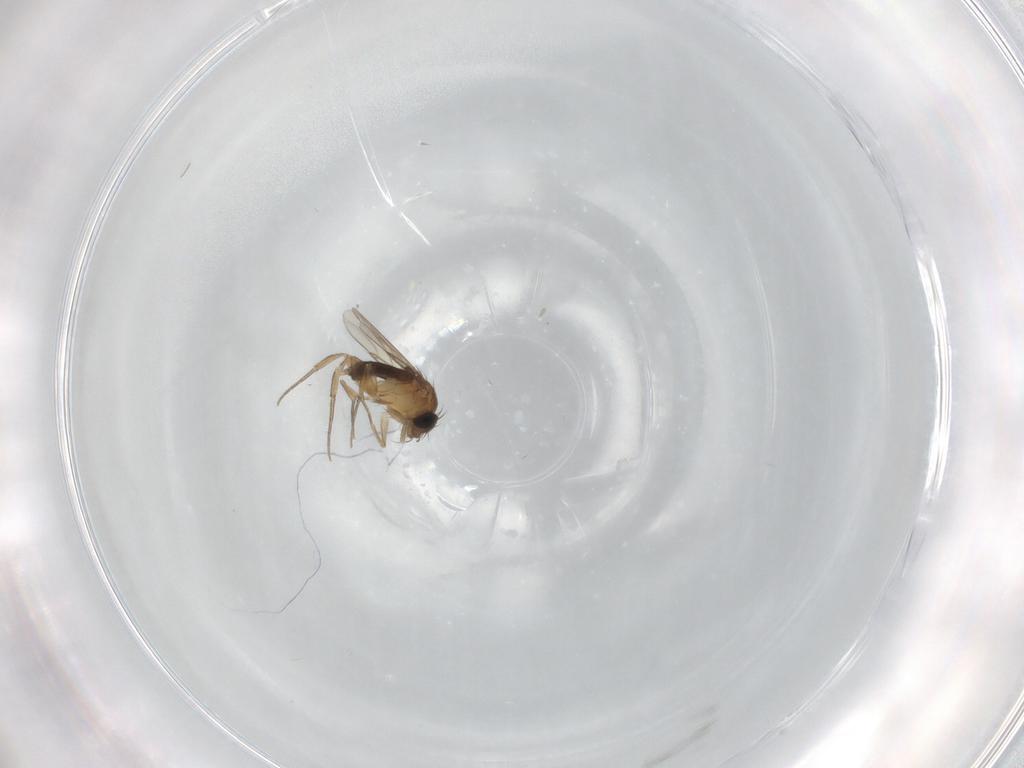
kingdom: Animalia
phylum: Arthropoda
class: Insecta
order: Diptera
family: Phoridae
